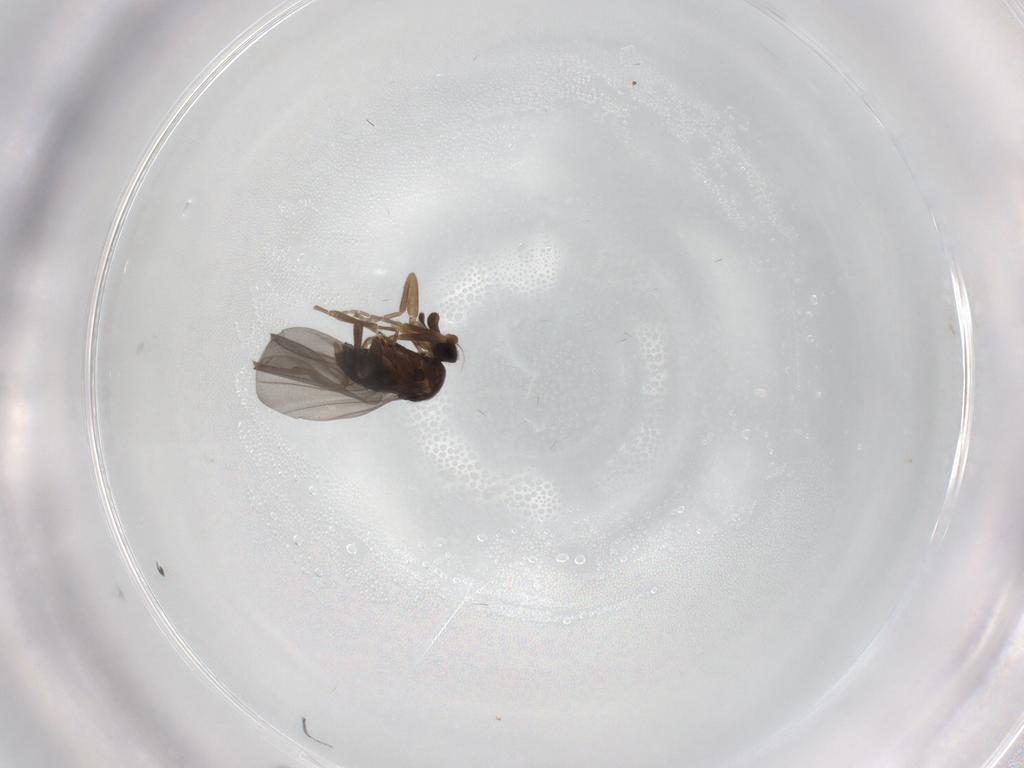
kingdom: Animalia
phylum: Arthropoda
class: Insecta
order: Diptera
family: Phoridae
